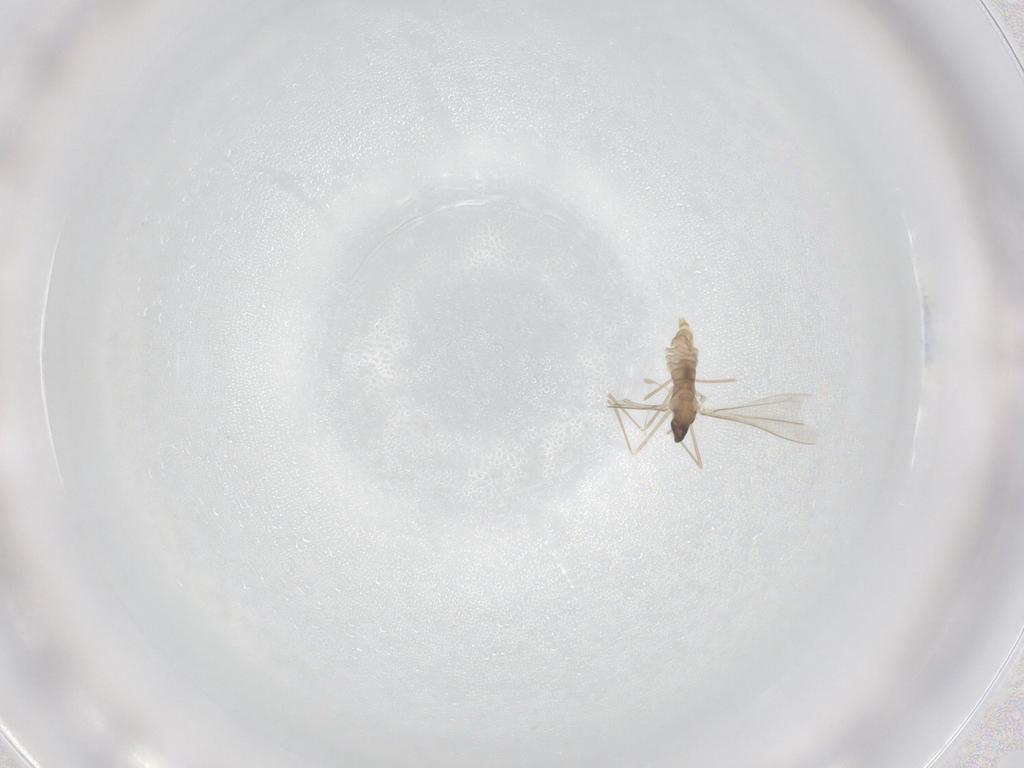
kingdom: Animalia
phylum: Arthropoda
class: Insecta
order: Diptera
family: Cecidomyiidae
